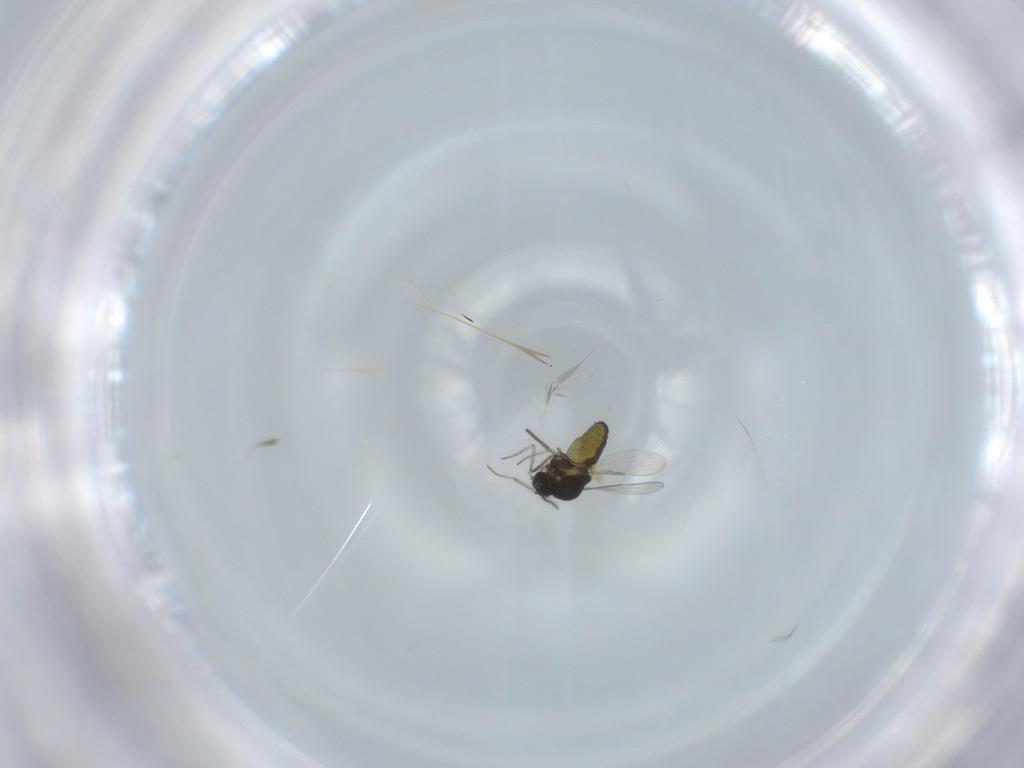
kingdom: Animalia
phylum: Arthropoda
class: Insecta
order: Diptera
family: Ceratopogonidae
